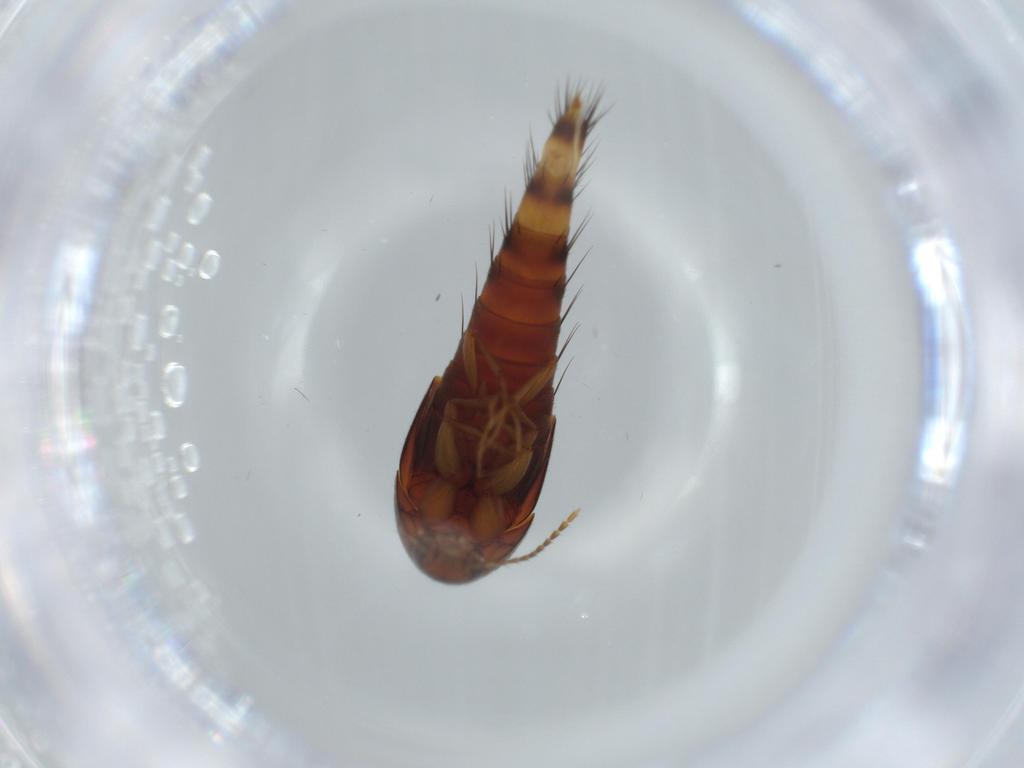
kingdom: Animalia
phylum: Arthropoda
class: Insecta
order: Coleoptera
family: Staphylinidae
